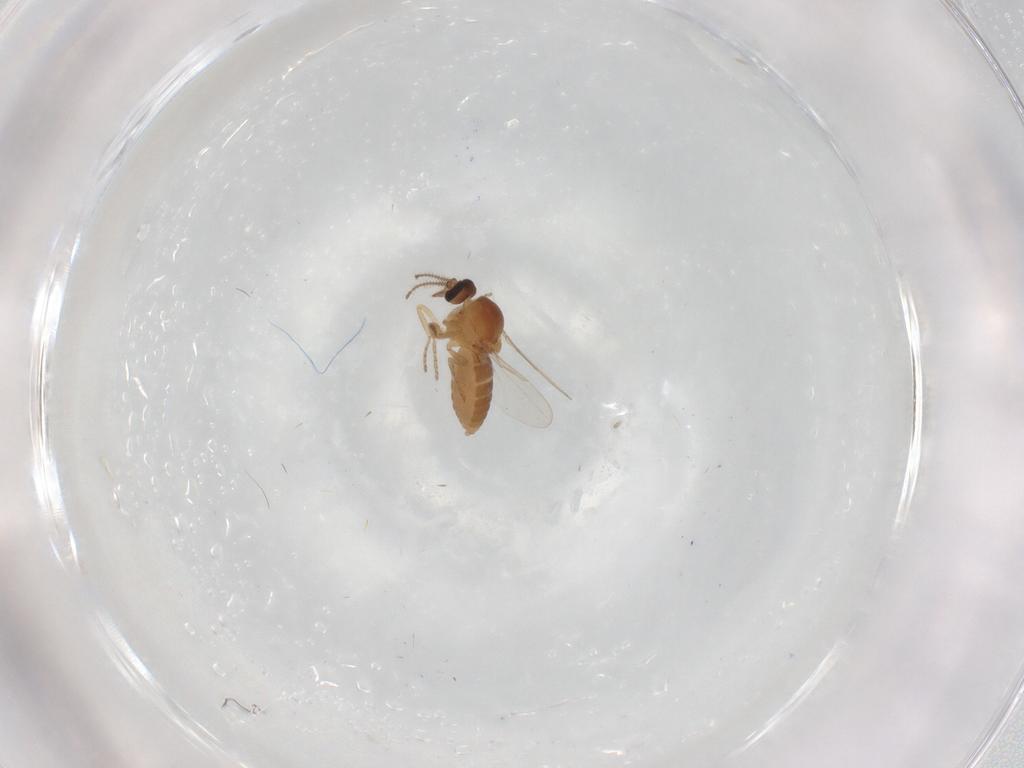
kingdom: Animalia
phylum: Arthropoda
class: Insecta
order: Diptera
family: Ceratopogonidae
